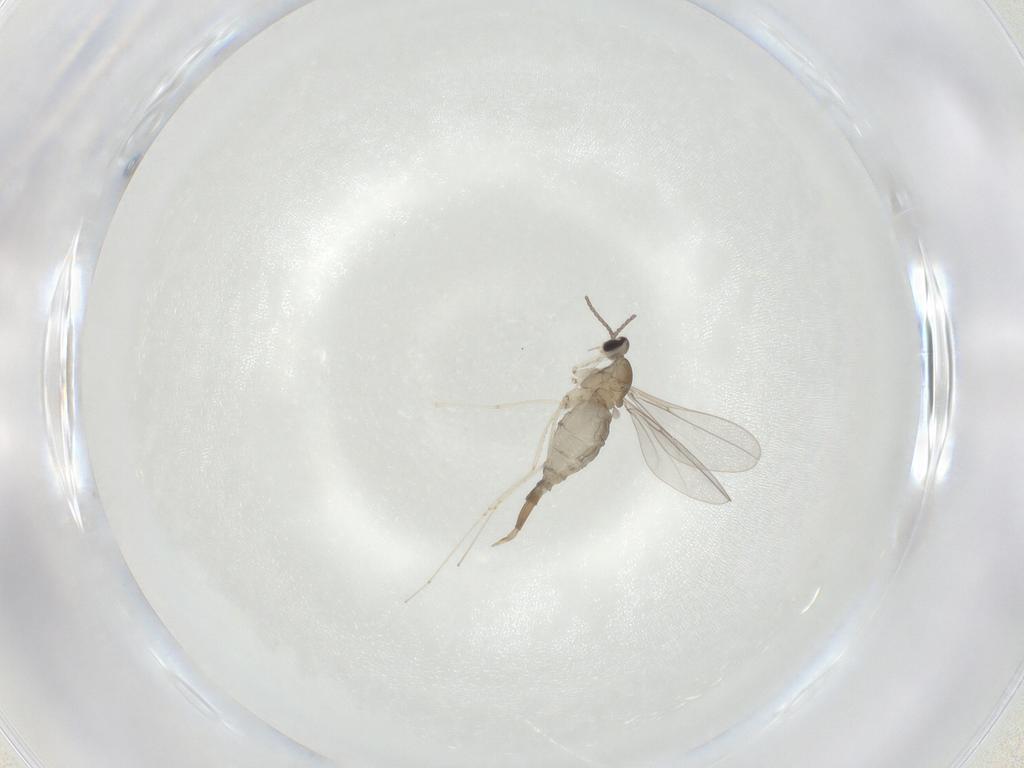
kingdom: Animalia
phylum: Arthropoda
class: Insecta
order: Diptera
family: Cecidomyiidae
